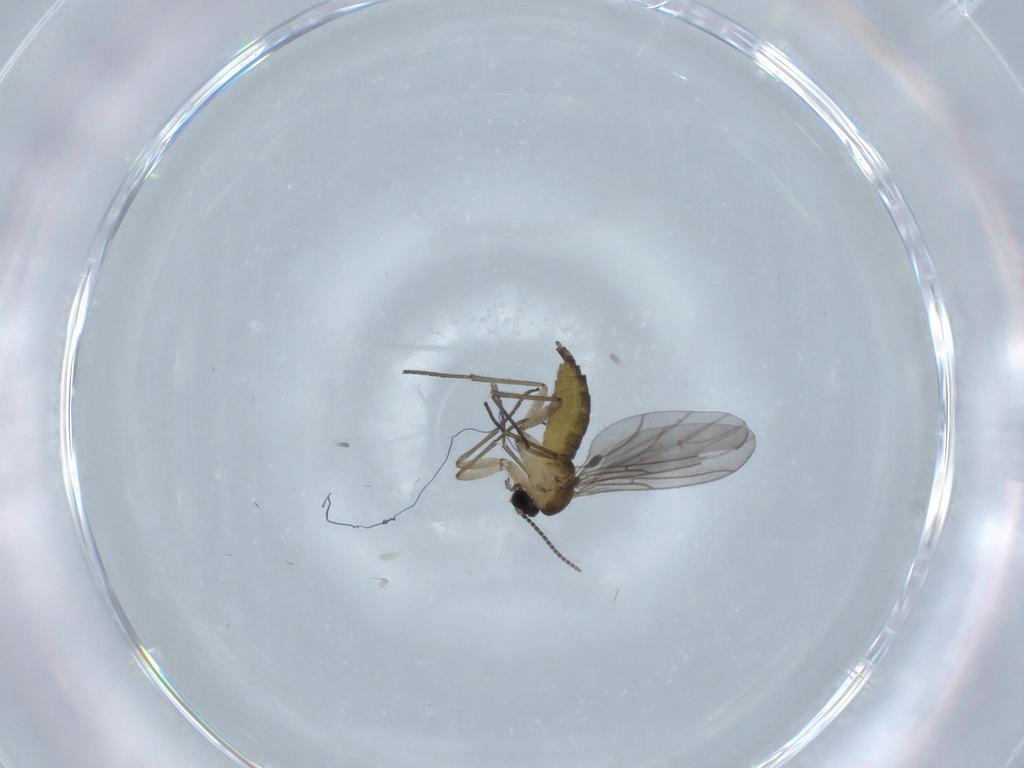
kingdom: Animalia
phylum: Arthropoda
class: Insecta
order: Diptera
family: Sciaridae
